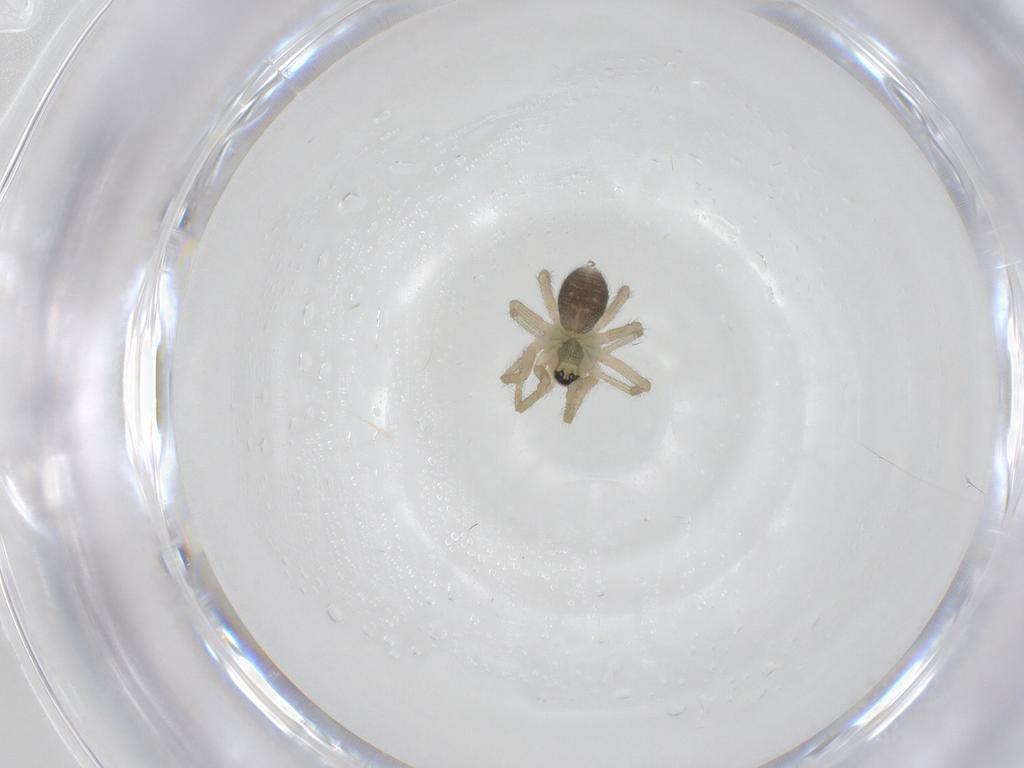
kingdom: Animalia
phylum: Arthropoda
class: Arachnida
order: Araneae
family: Linyphiidae
